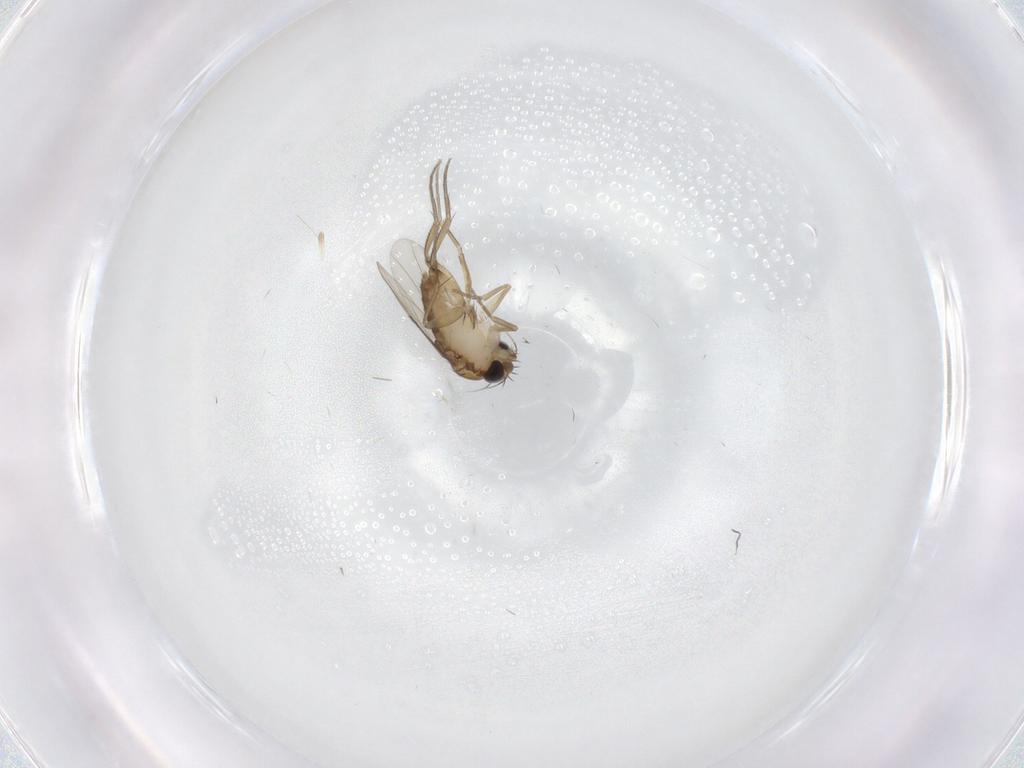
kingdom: Animalia
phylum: Arthropoda
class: Insecta
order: Diptera
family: Phoridae
